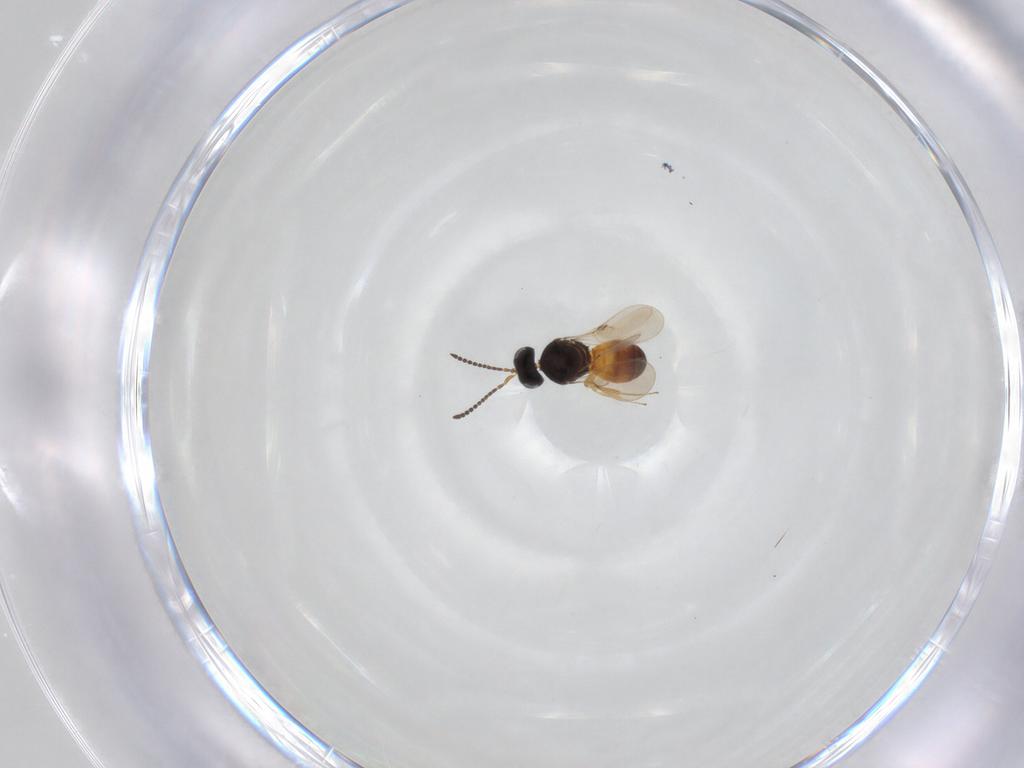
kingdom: Animalia
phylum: Arthropoda
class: Insecta
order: Hymenoptera
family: Scelionidae
